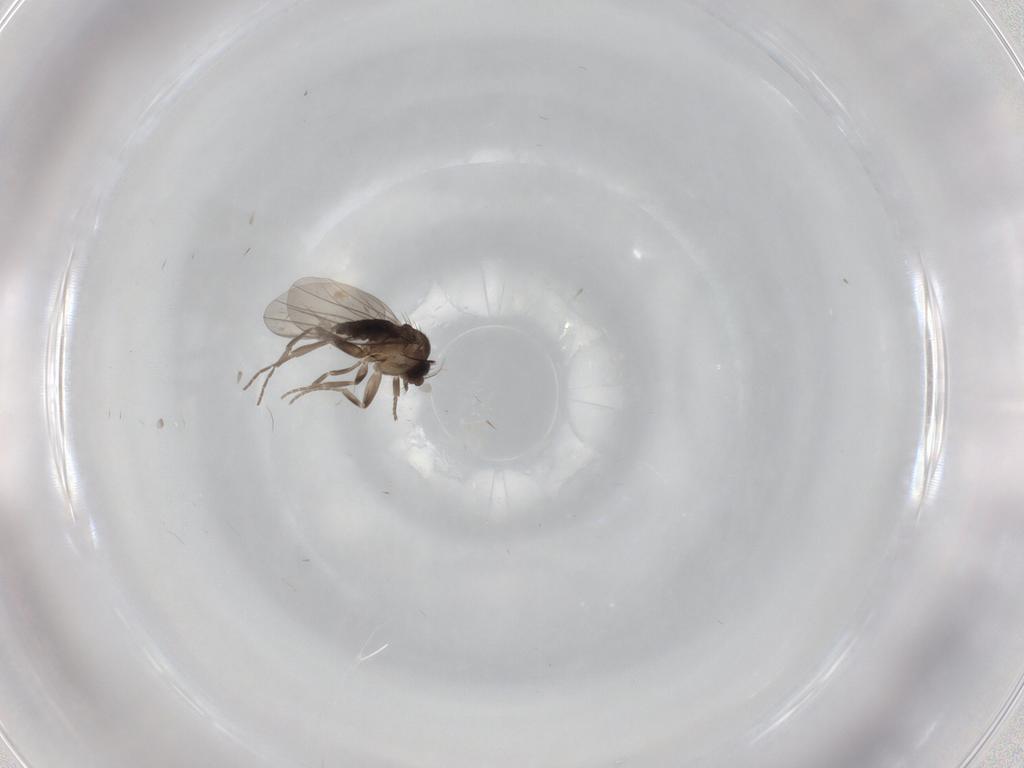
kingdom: Animalia
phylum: Arthropoda
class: Insecta
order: Diptera
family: Phoridae
